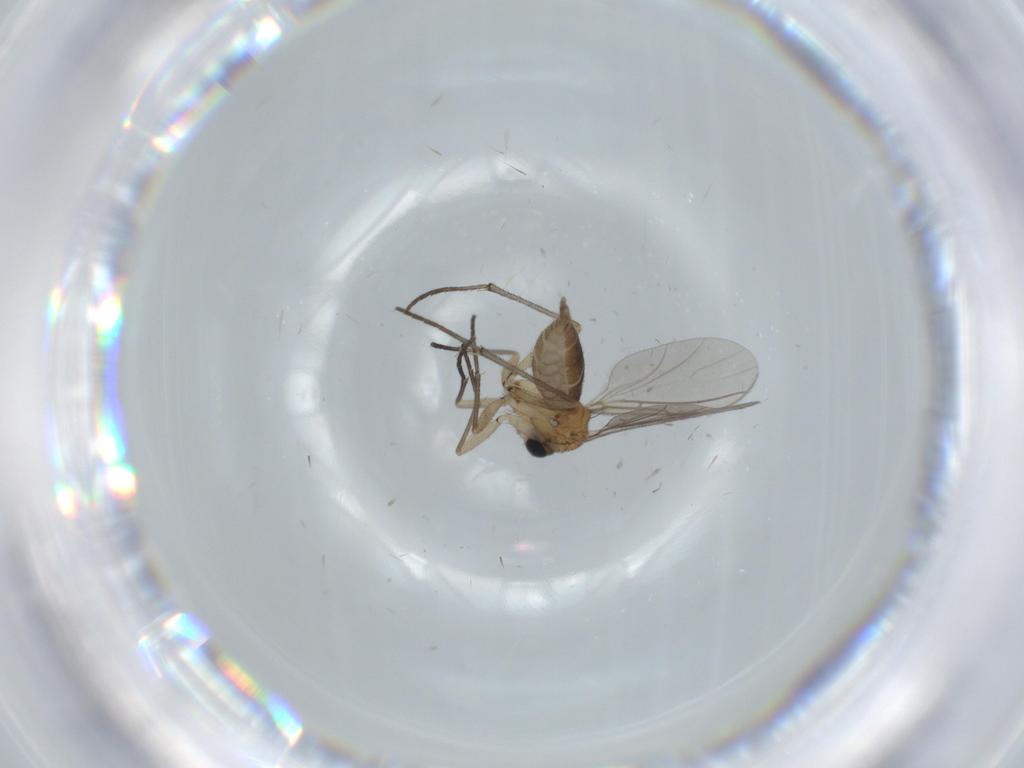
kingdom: Animalia
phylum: Arthropoda
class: Insecta
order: Diptera
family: Sciaridae
